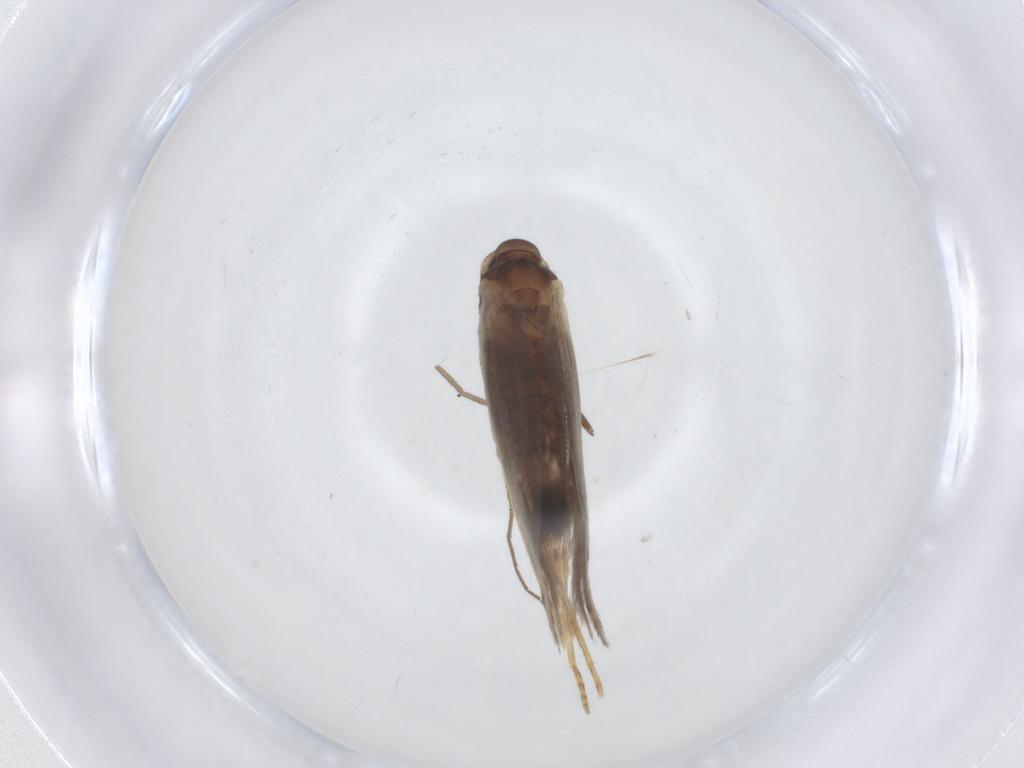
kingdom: Animalia
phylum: Arthropoda
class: Insecta
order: Lepidoptera
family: Elachistidae
